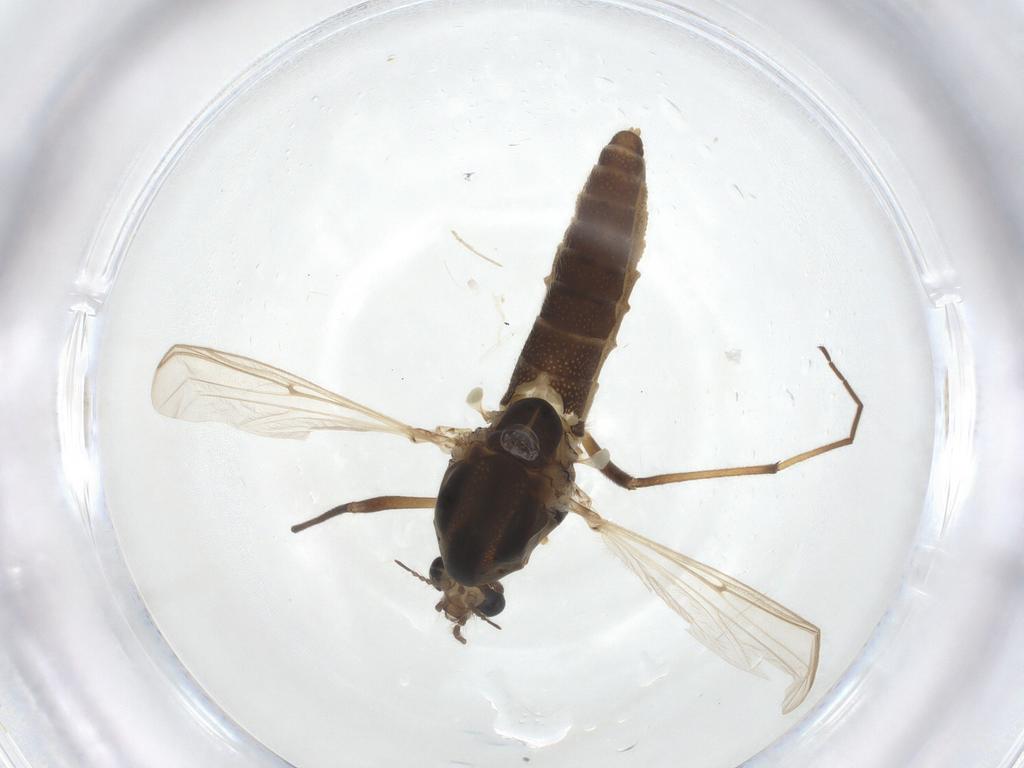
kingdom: Animalia
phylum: Arthropoda
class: Insecta
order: Diptera
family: Chironomidae
